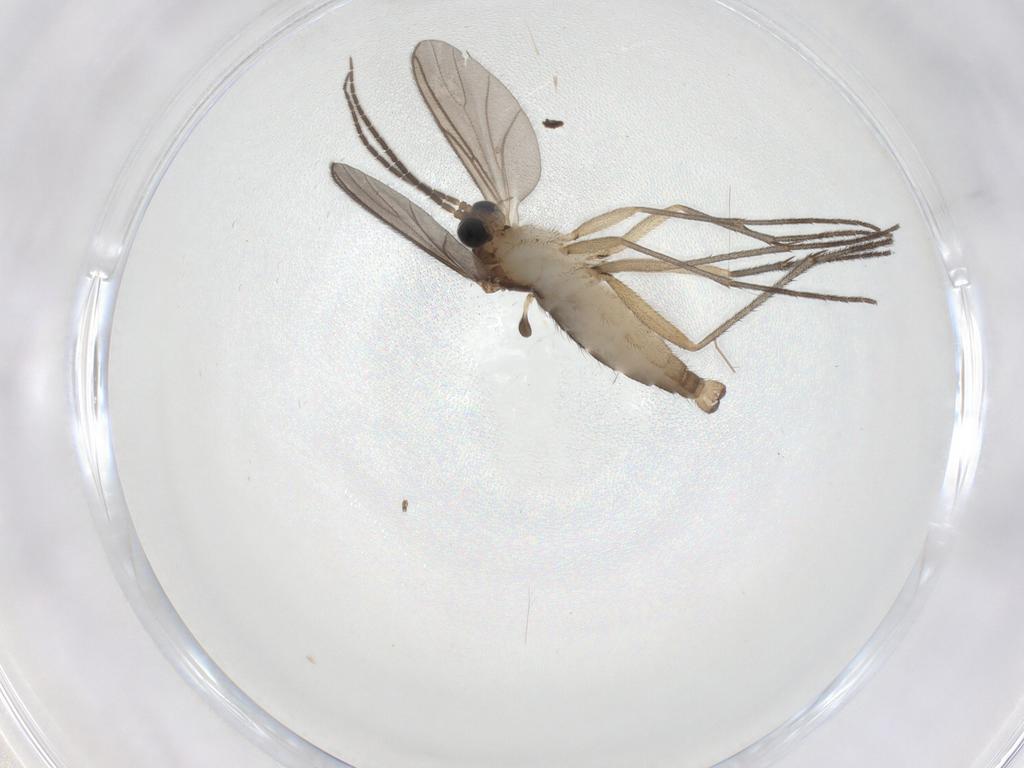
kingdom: Animalia
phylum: Arthropoda
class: Insecta
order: Diptera
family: Sciaridae
